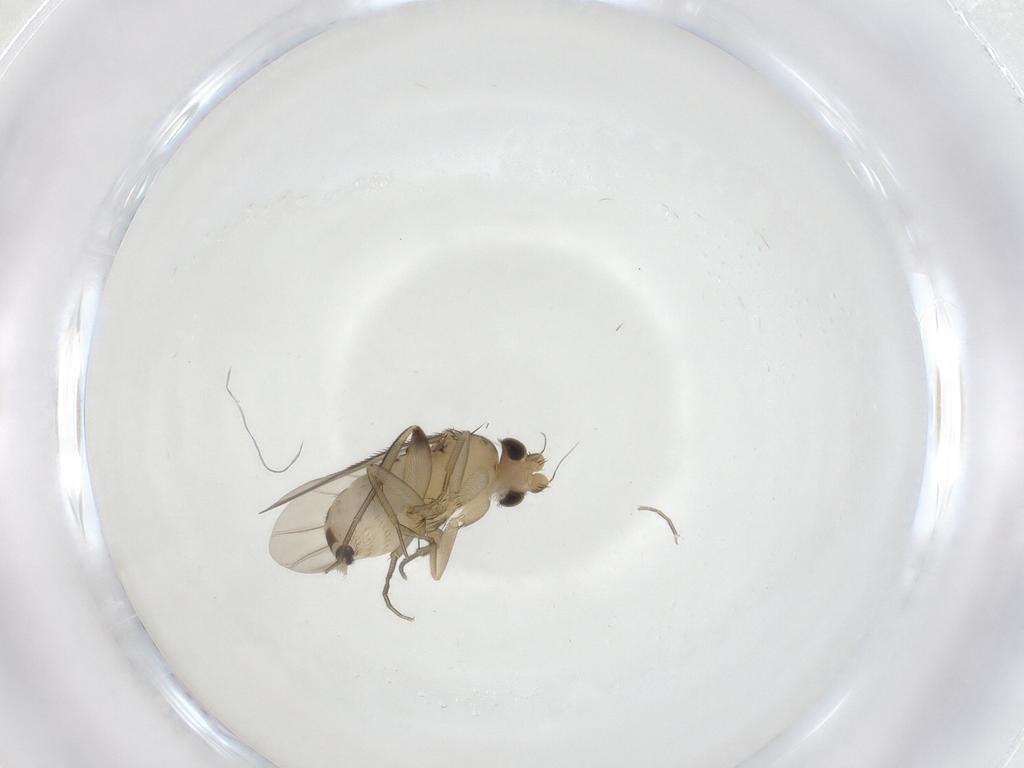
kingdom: Animalia
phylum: Arthropoda
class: Insecta
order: Diptera
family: Phoridae
